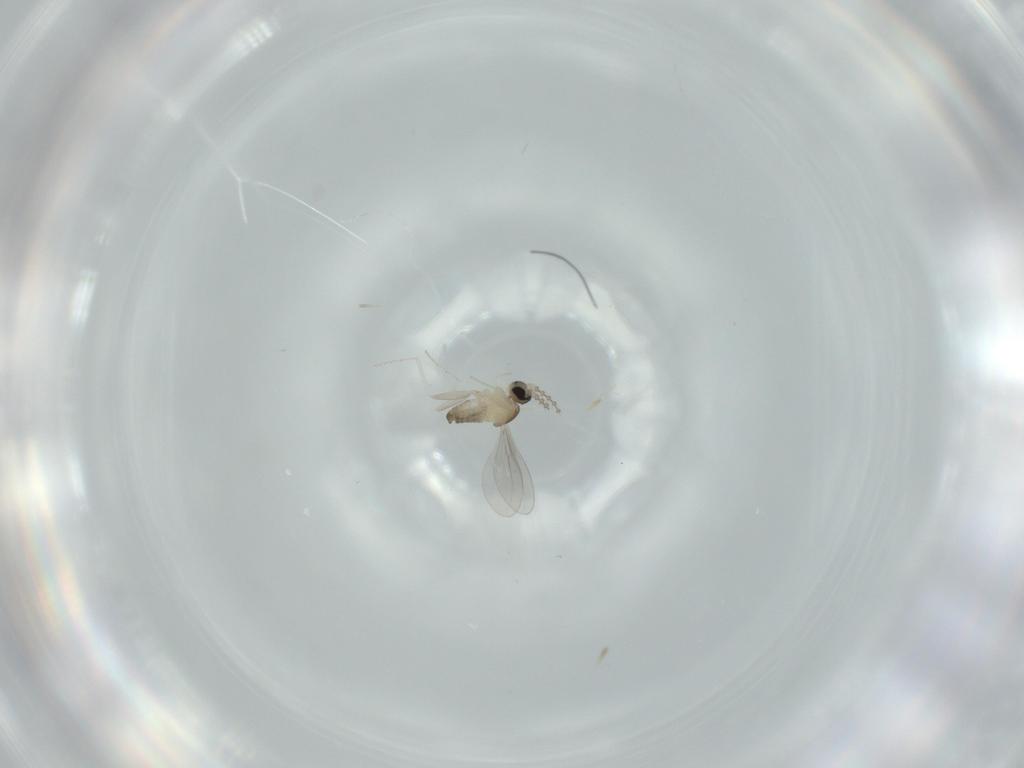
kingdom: Animalia
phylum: Arthropoda
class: Insecta
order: Diptera
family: Cecidomyiidae
